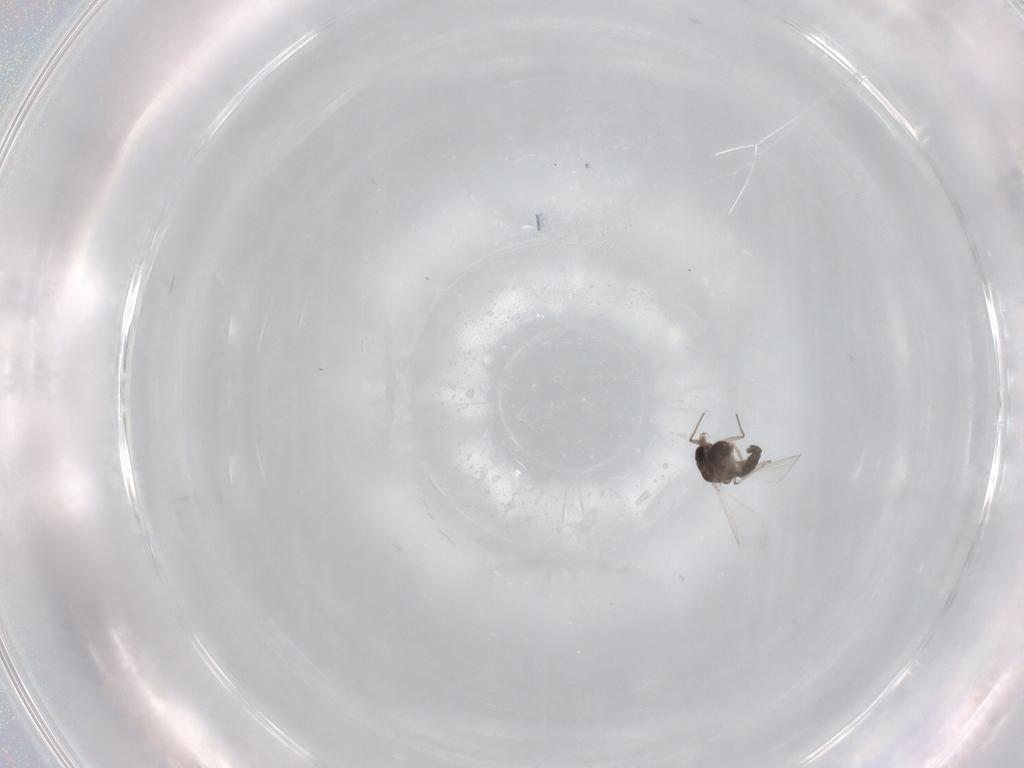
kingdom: Animalia
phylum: Arthropoda
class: Insecta
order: Diptera
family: Chironomidae
